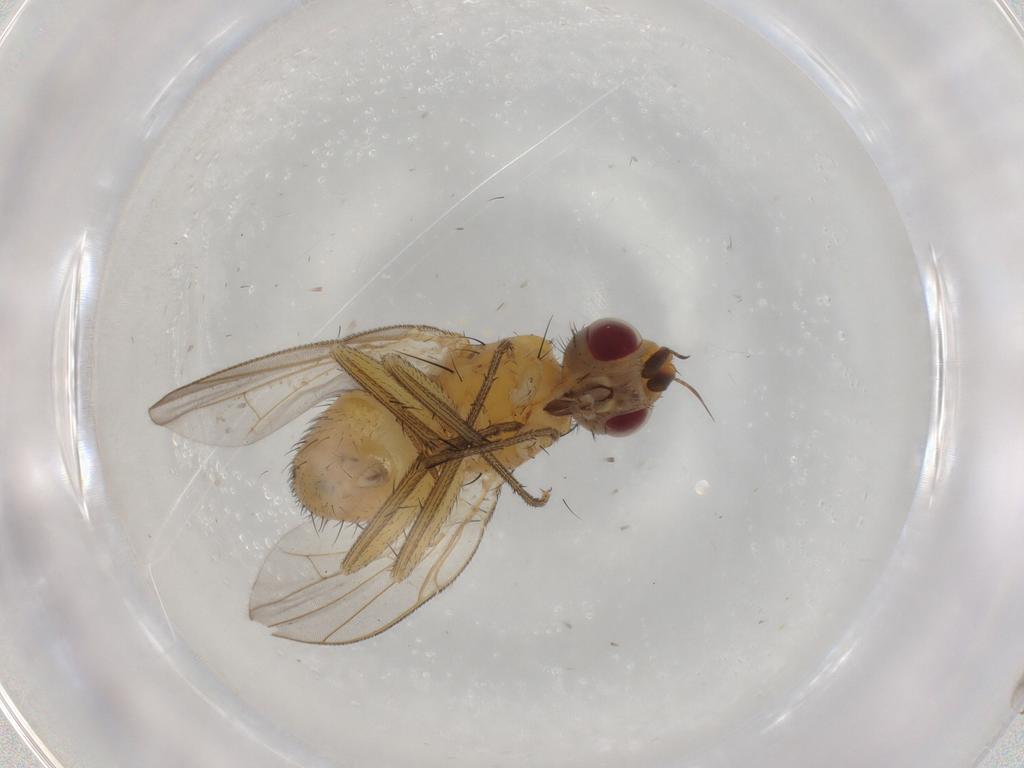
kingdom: Animalia
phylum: Arthropoda
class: Insecta
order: Diptera
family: Muscidae
